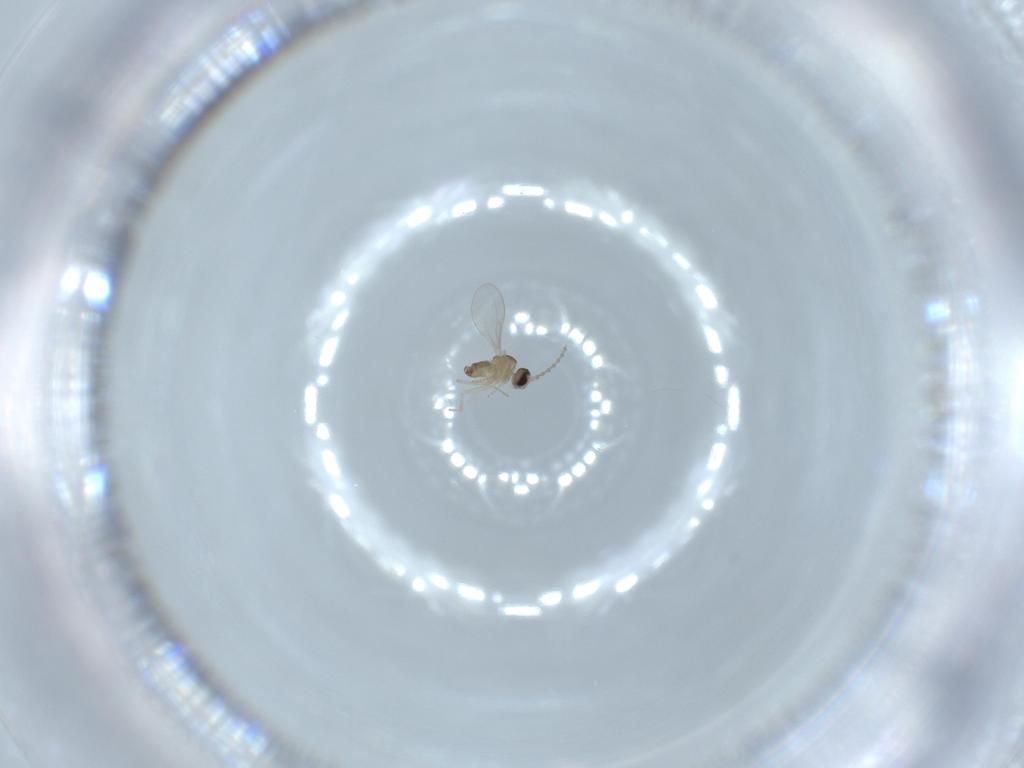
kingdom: Animalia
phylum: Arthropoda
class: Insecta
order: Diptera
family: Cecidomyiidae
